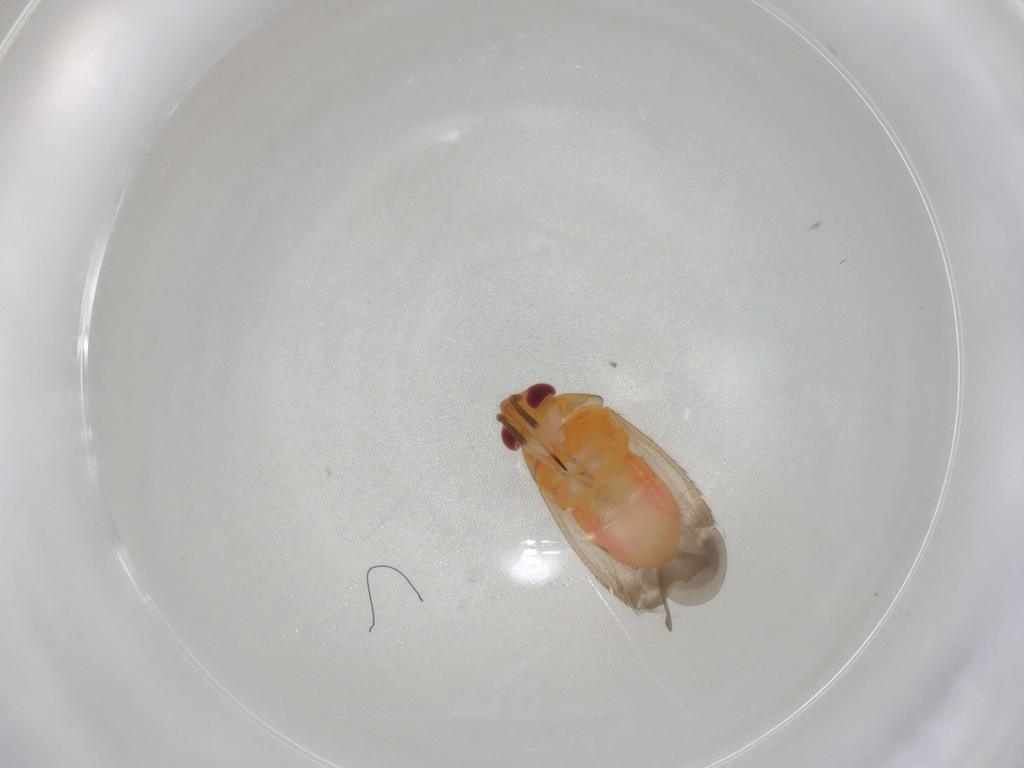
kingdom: Animalia
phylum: Arthropoda
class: Insecta
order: Hemiptera
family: Miridae
